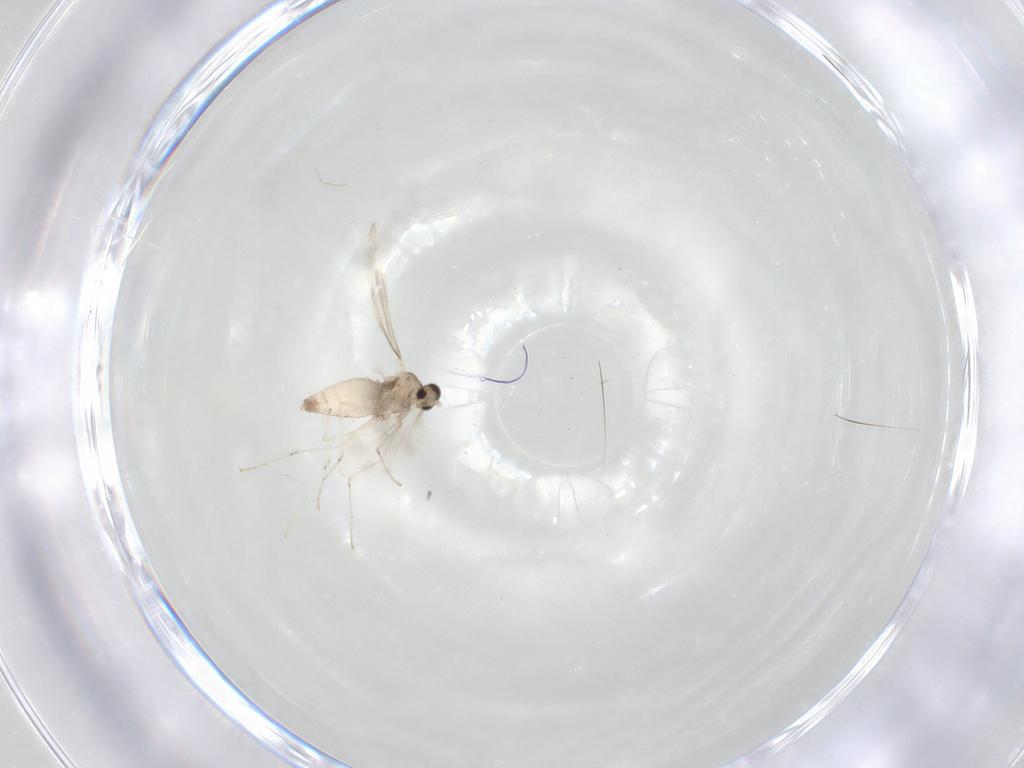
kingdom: Animalia
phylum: Arthropoda
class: Insecta
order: Diptera
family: Cecidomyiidae
